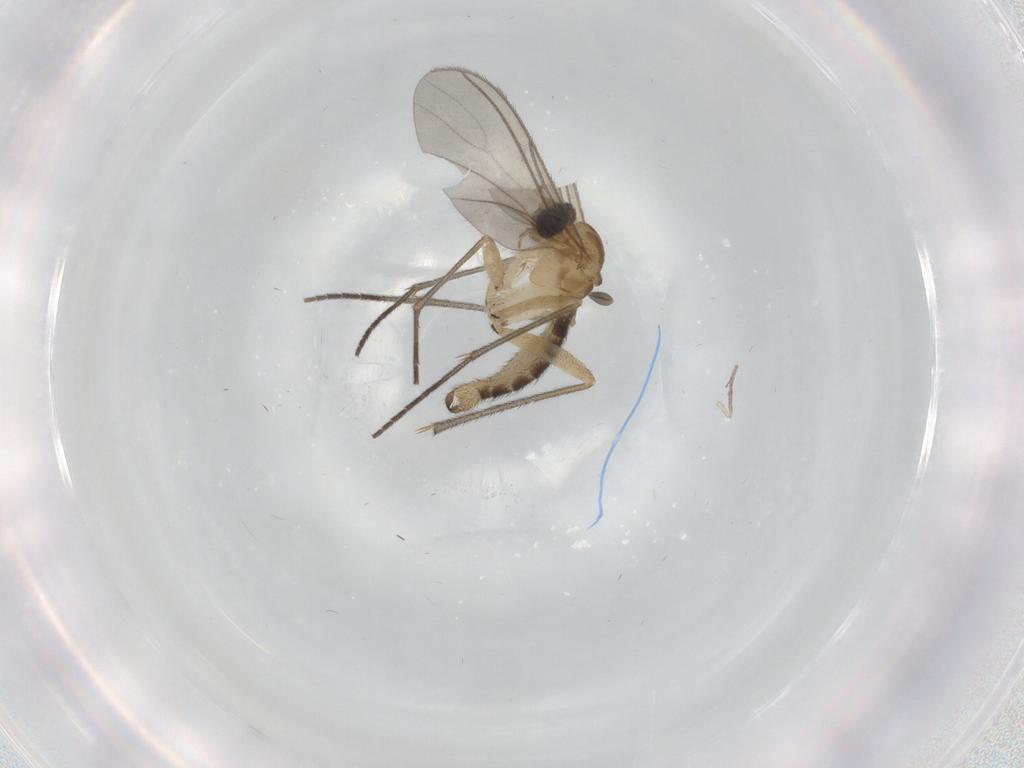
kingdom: Animalia
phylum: Arthropoda
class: Insecta
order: Diptera
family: Sciaridae
